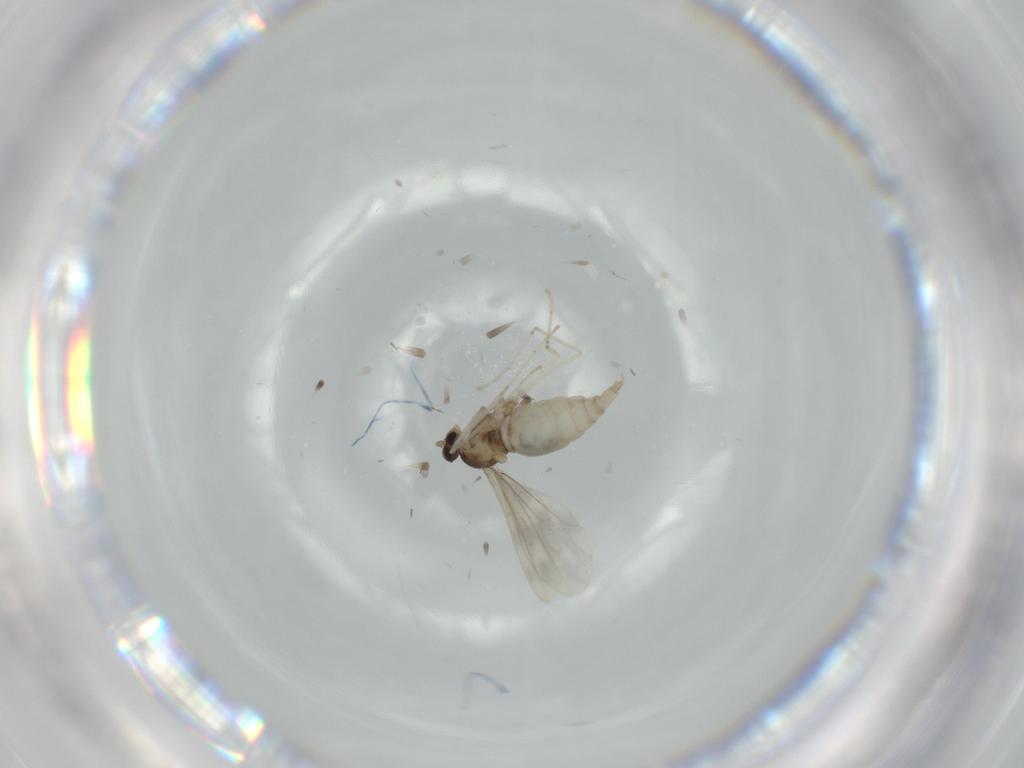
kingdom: Animalia
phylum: Arthropoda
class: Insecta
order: Diptera
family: Cecidomyiidae
